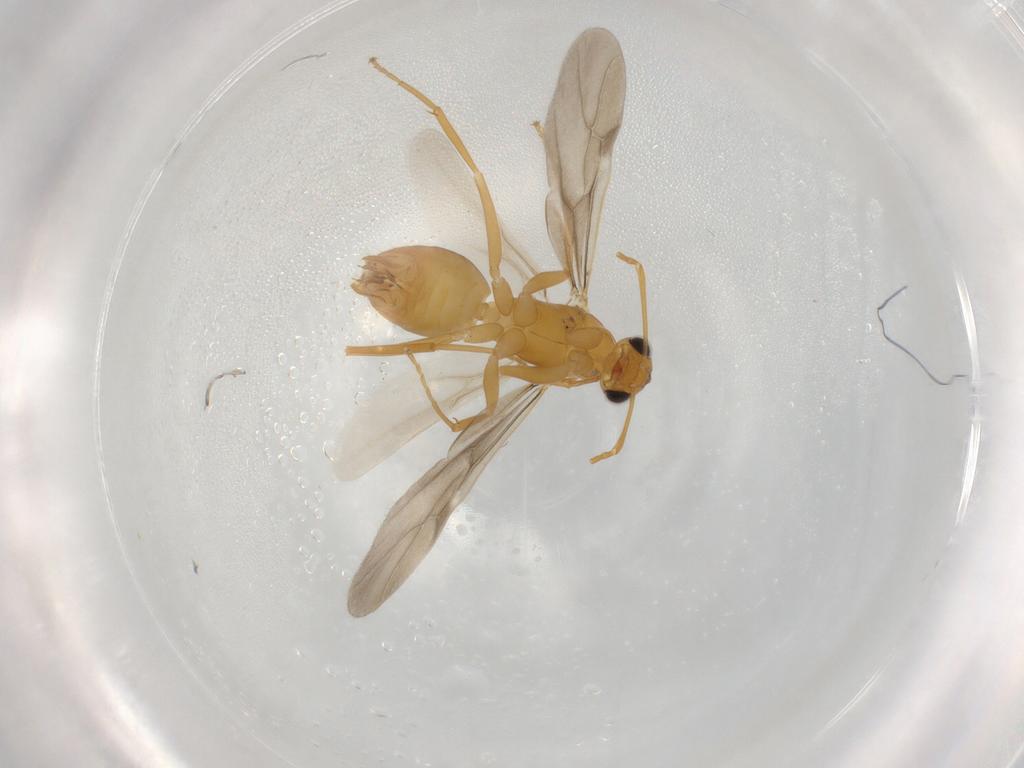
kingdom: Animalia
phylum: Arthropoda
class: Insecta
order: Hymenoptera
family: Formicidae
